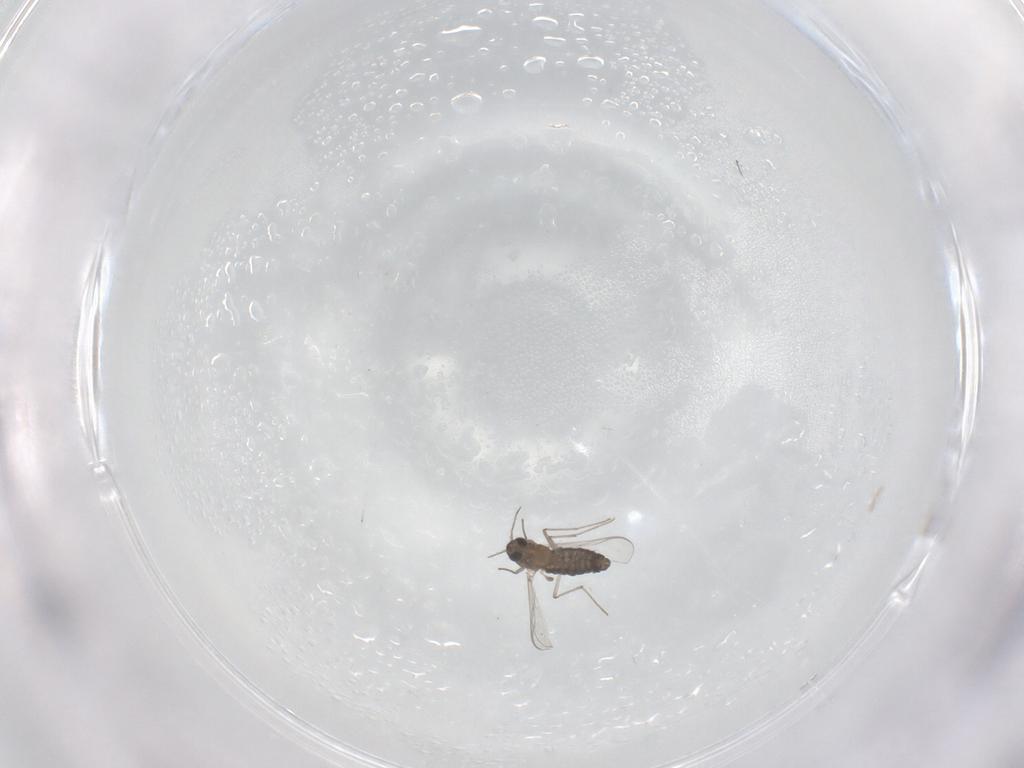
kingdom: Animalia
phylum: Arthropoda
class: Insecta
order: Diptera
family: Chironomidae
